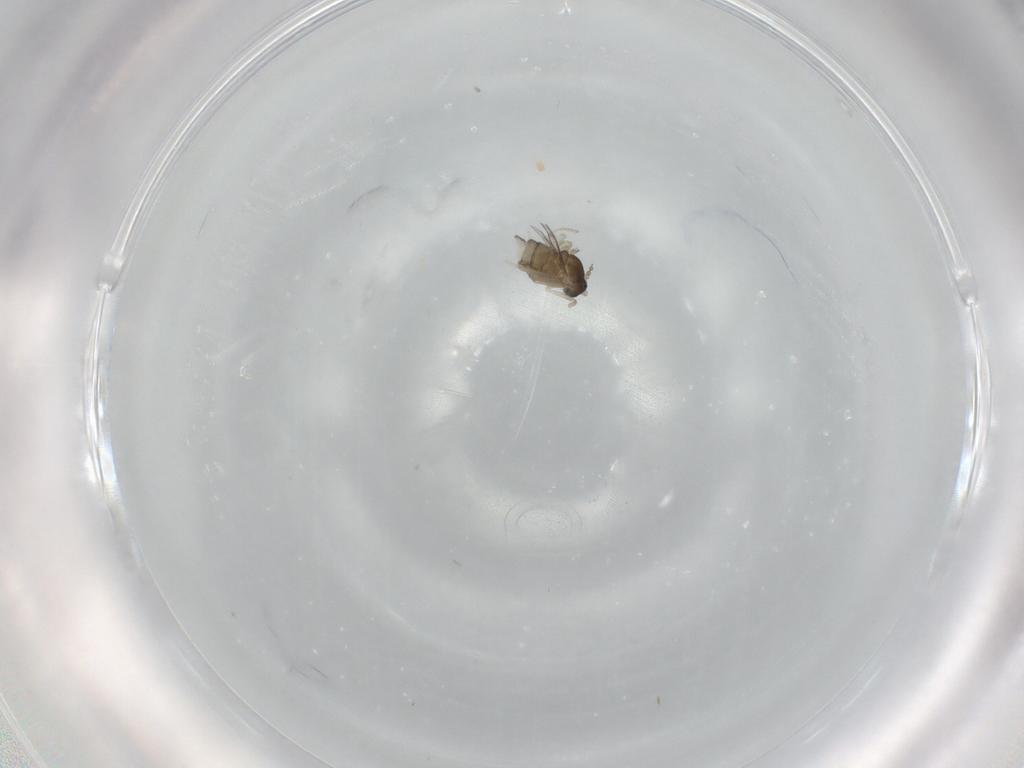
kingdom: Animalia
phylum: Arthropoda
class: Insecta
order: Diptera
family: Cecidomyiidae
